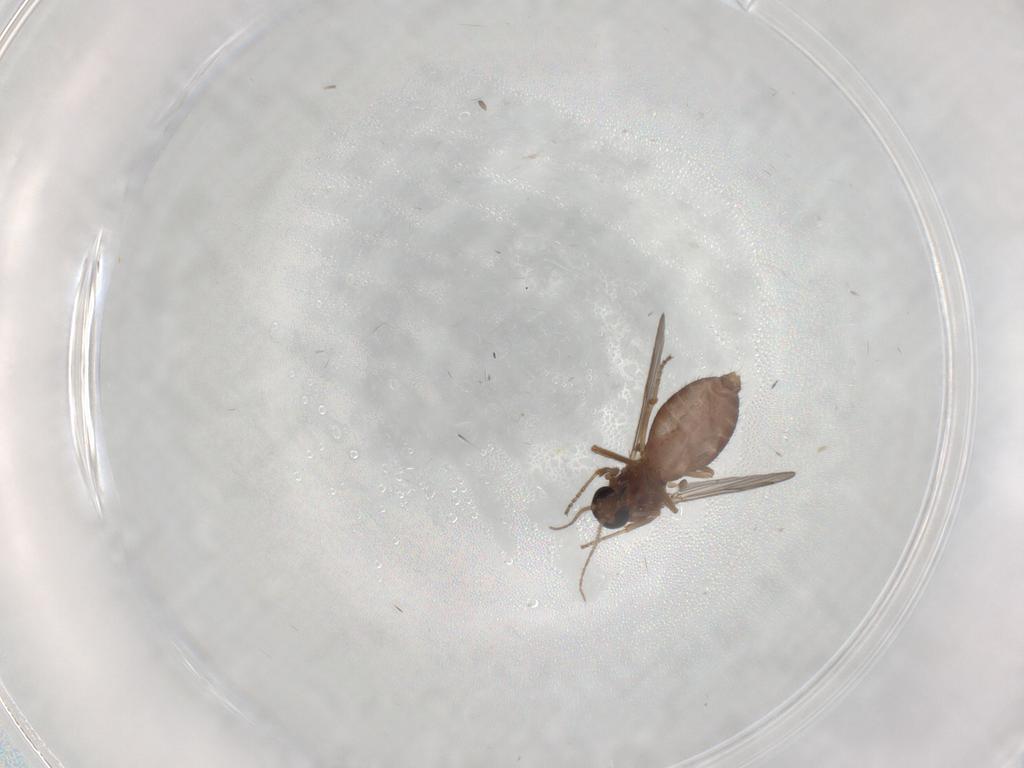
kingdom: Animalia
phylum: Arthropoda
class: Insecta
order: Diptera
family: Ceratopogonidae
